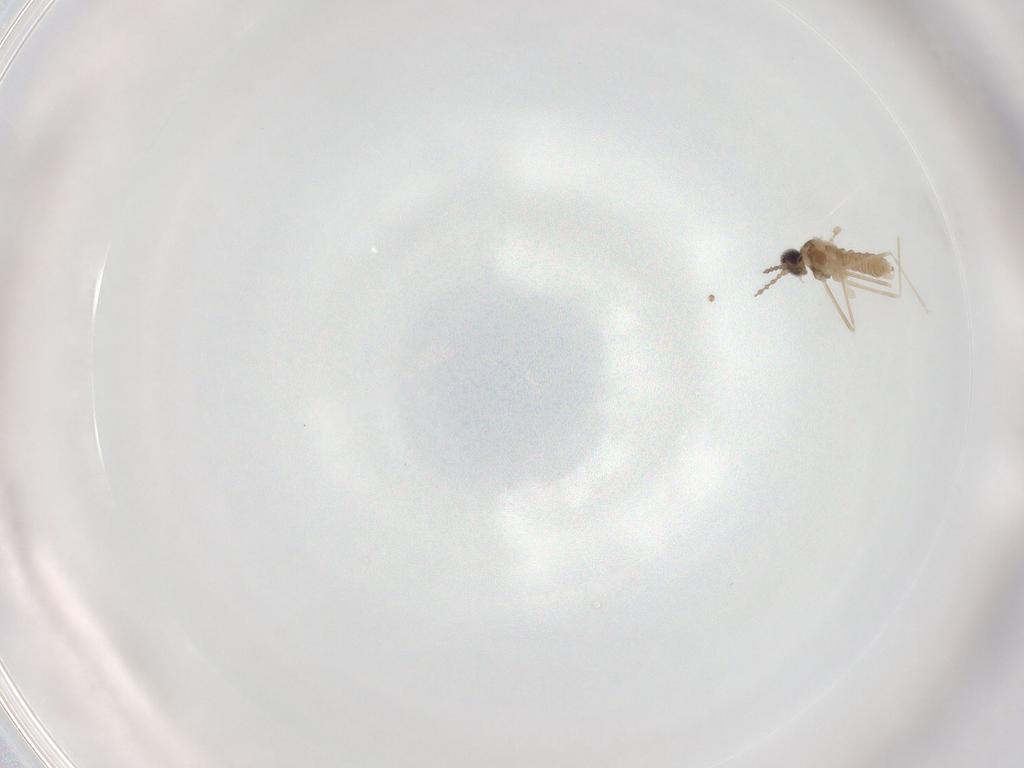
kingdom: Animalia
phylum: Arthropoda
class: Insecta
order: Diptera
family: Cecidomyiidae
